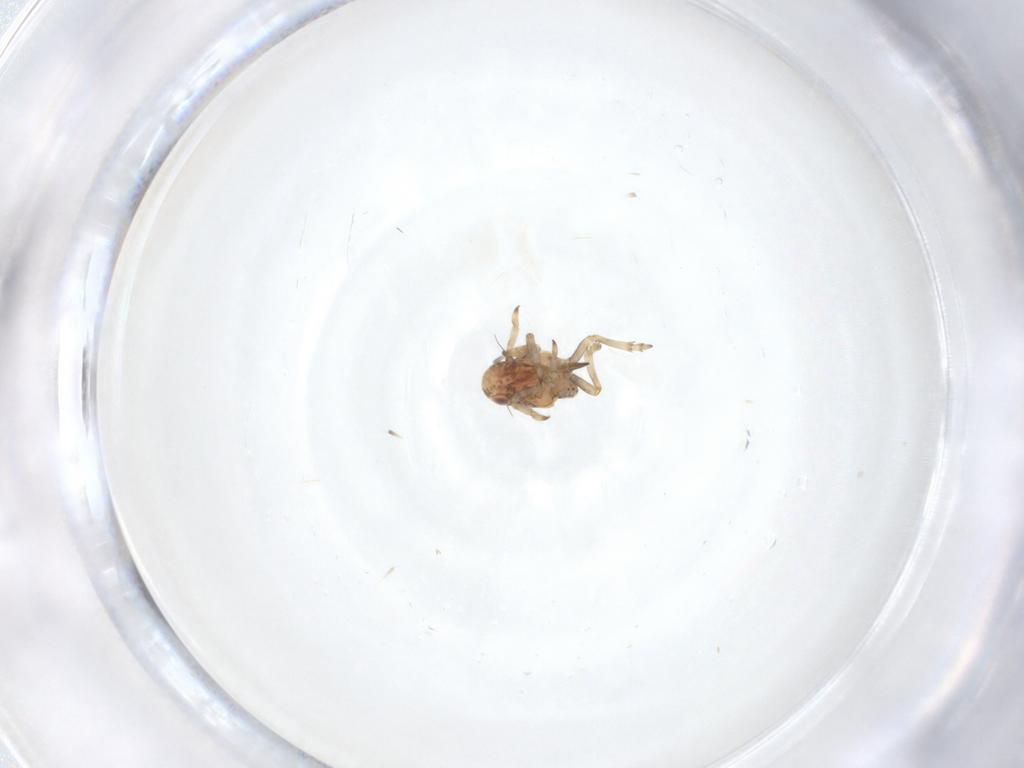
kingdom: Animalia
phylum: Arthropoda
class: Insecta
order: Hemiptera
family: Tropiduchidae
